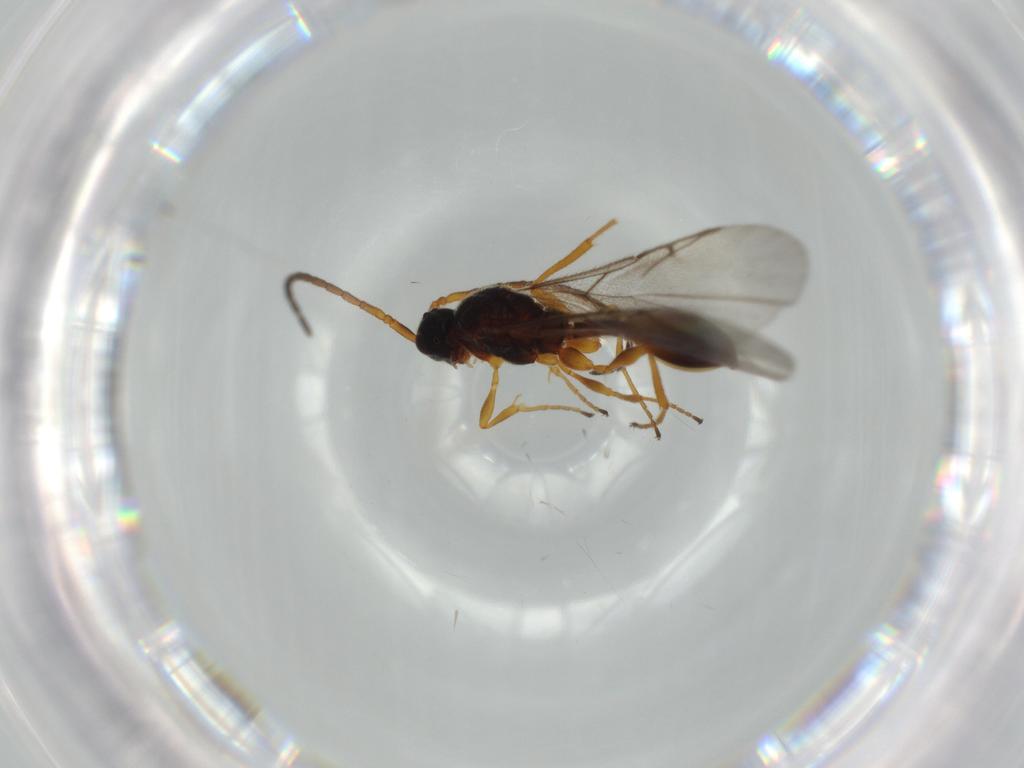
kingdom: Animalia
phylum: Arthropoda
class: Insecta
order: Hymenoptera
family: Diapriidae
